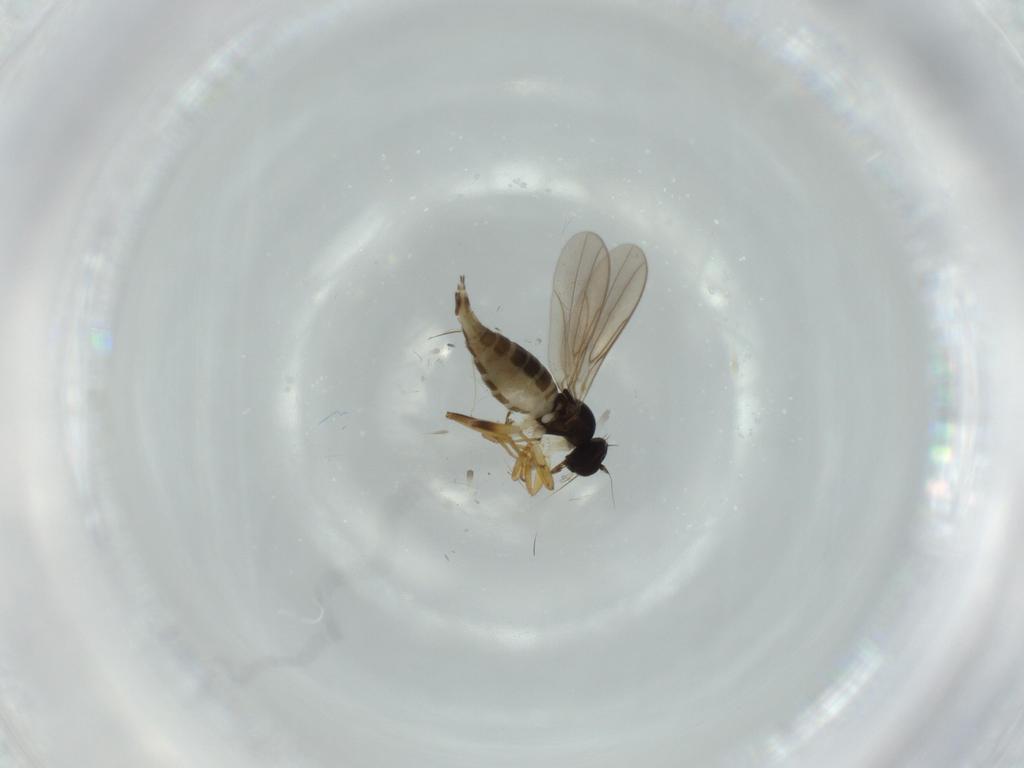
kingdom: Animalia
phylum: Arthropoda
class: Insecta
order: Diptera
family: Hybotidae
